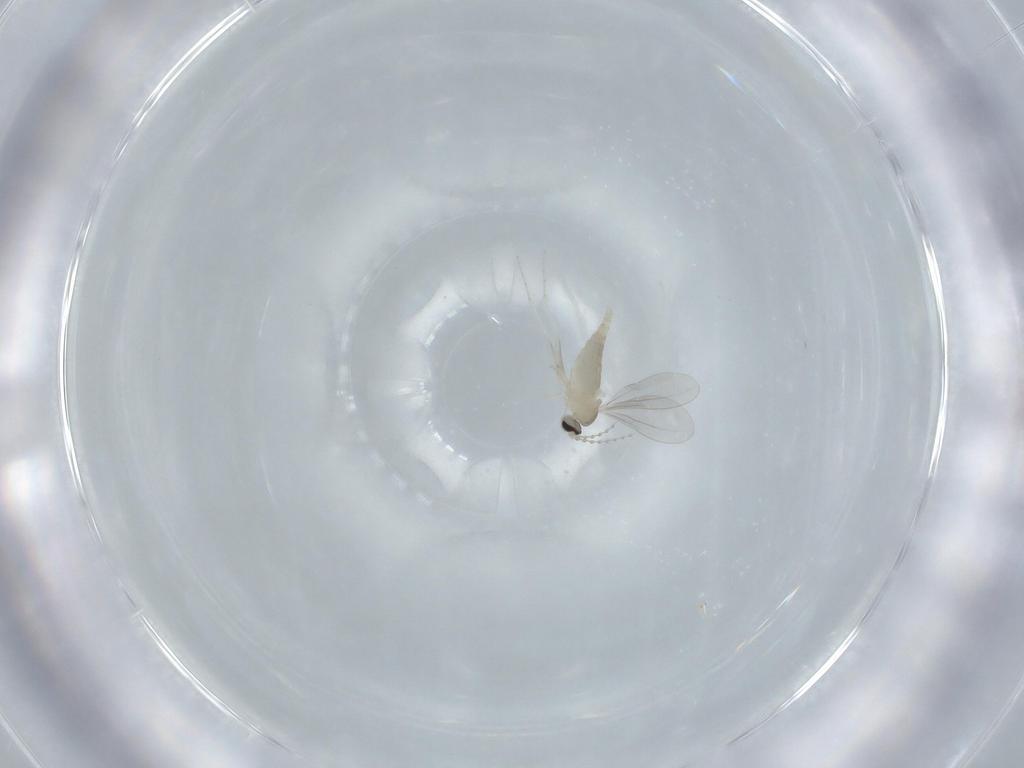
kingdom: Animalia
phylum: Arthropoda
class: Insecta
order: Diptera
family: Cecidomyiidae
